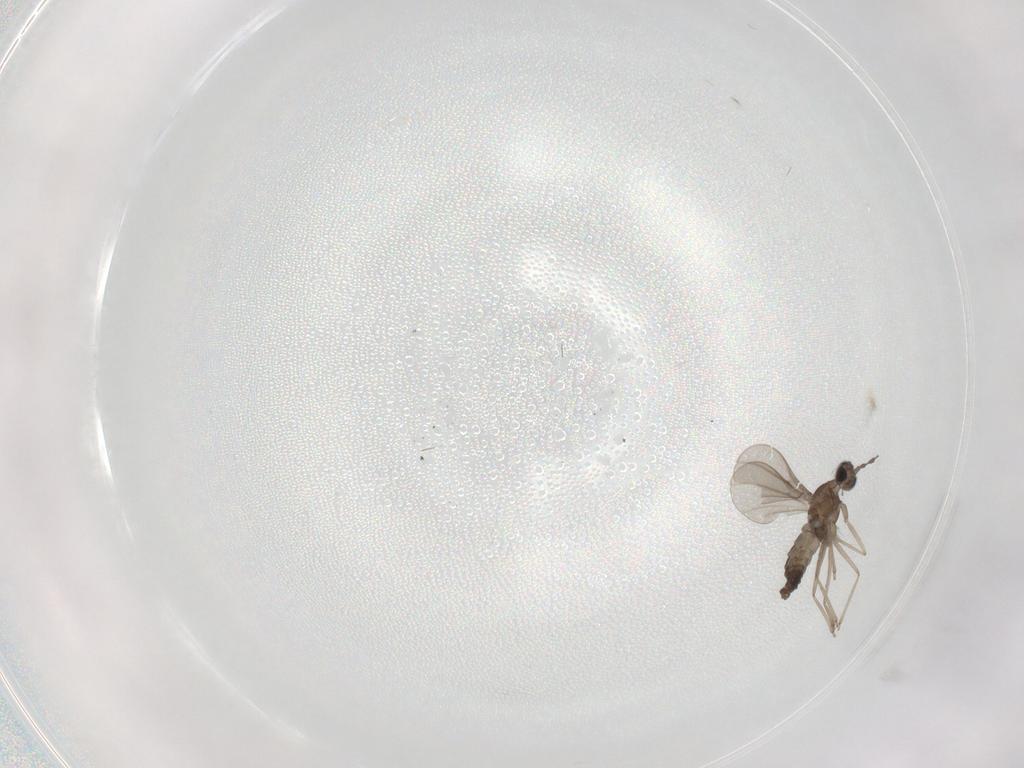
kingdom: Animalia
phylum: Arthropoda
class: Insecta
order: Diptera
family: Cecidomyiidae
